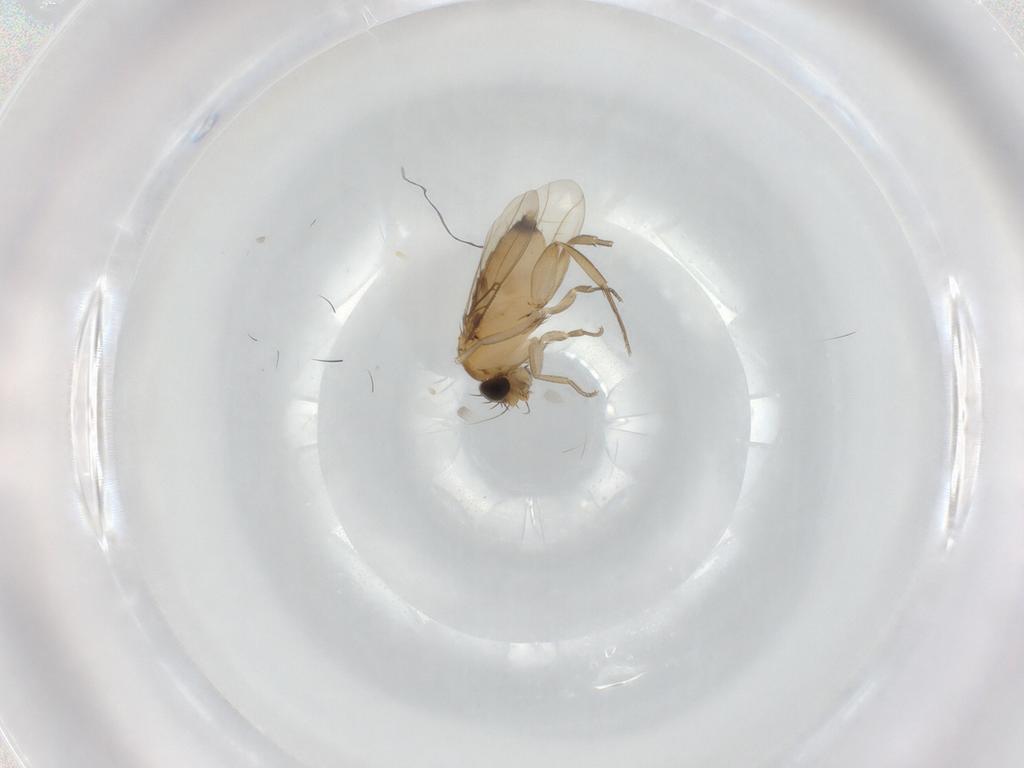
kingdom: Animalia
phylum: Arthropoda
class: Insecta
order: Diptera
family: Phoridae
